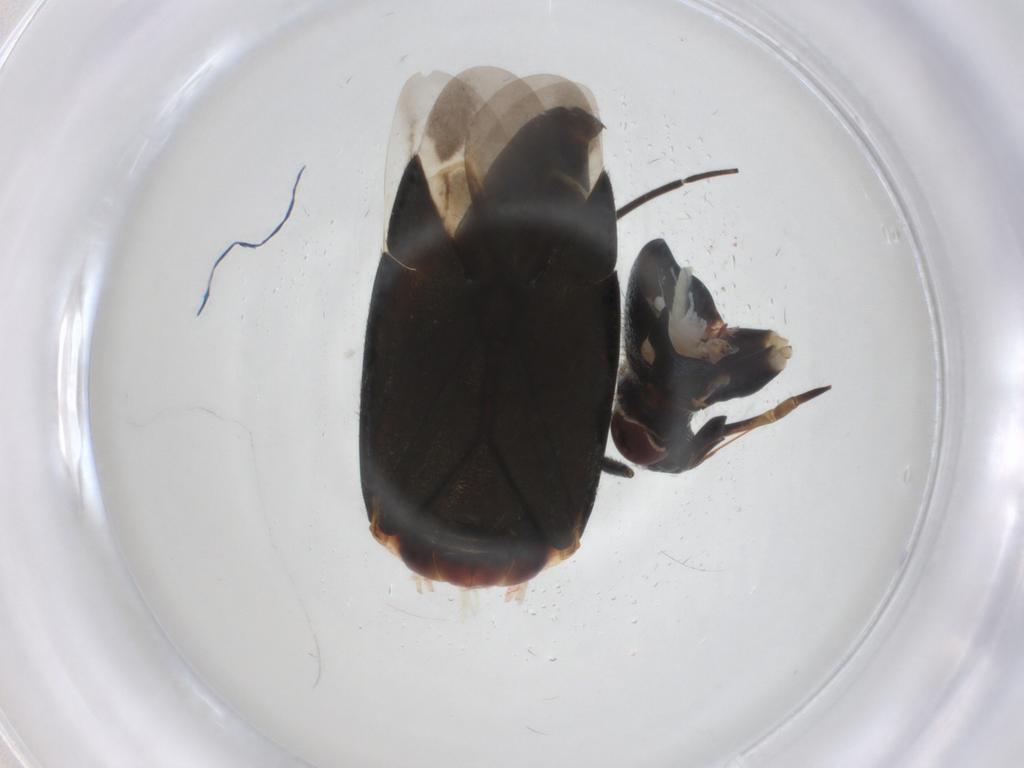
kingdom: Animalia
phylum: Arthropoda
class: Insecta
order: Hemiptera
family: Miridae
